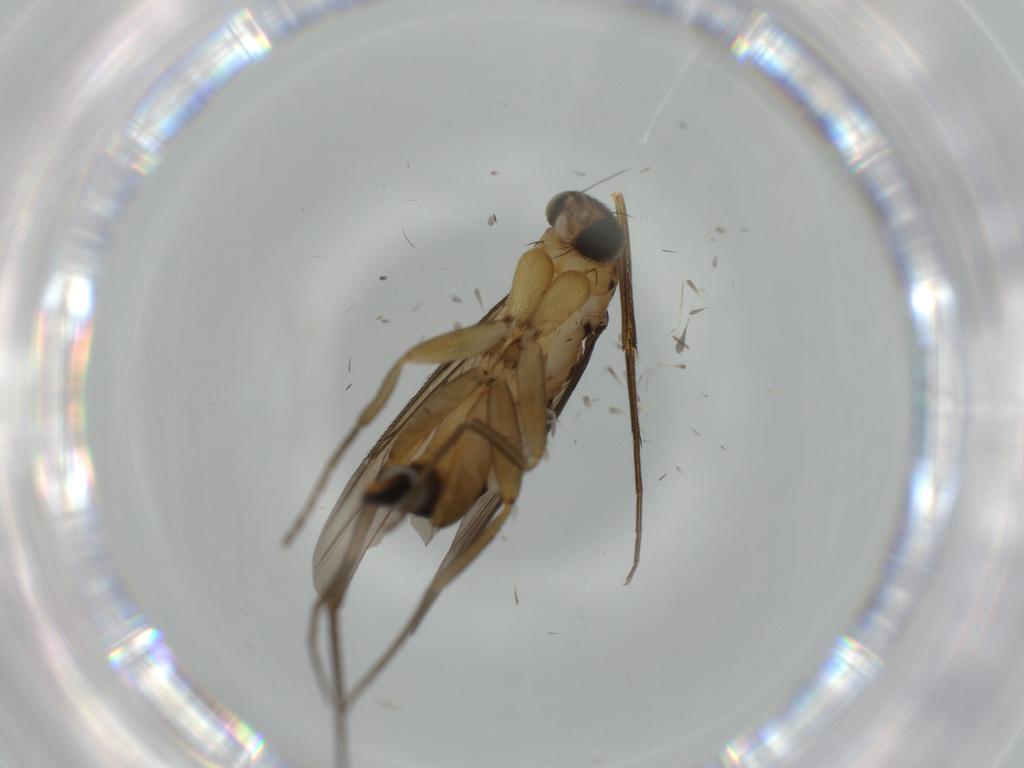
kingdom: Animalia
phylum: Arthropoda
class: Insecta
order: Diptera
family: Phoridae
